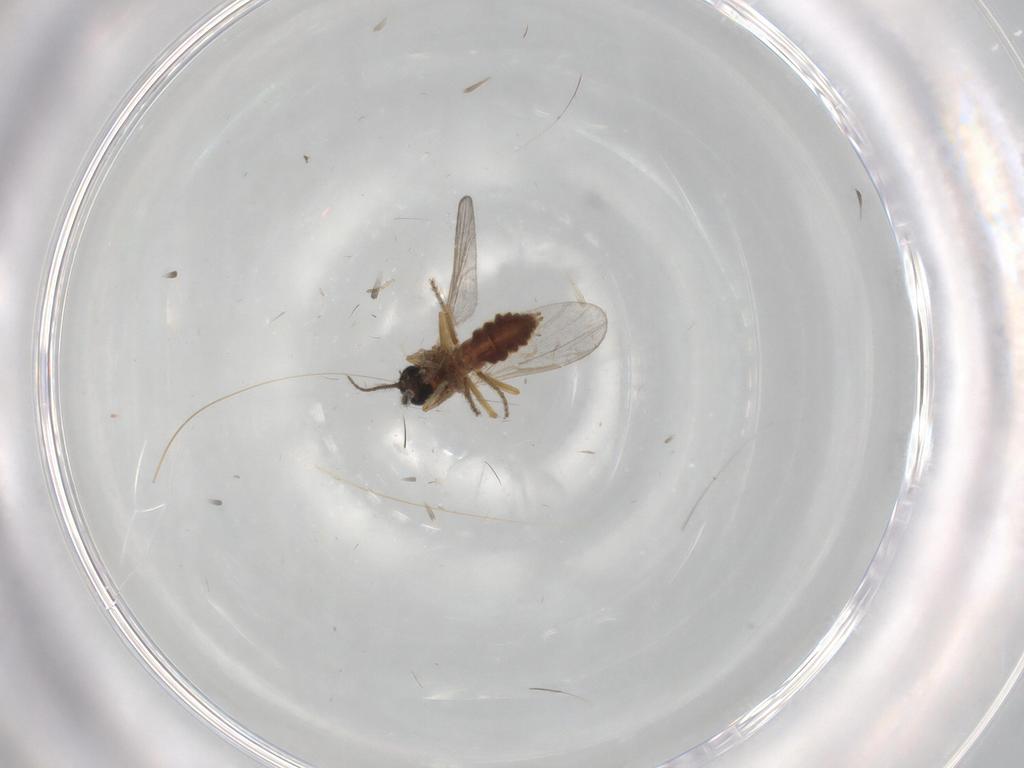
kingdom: Animalia
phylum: Arthropoda
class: Insecta
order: Diptera
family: Ceratopogonidae
